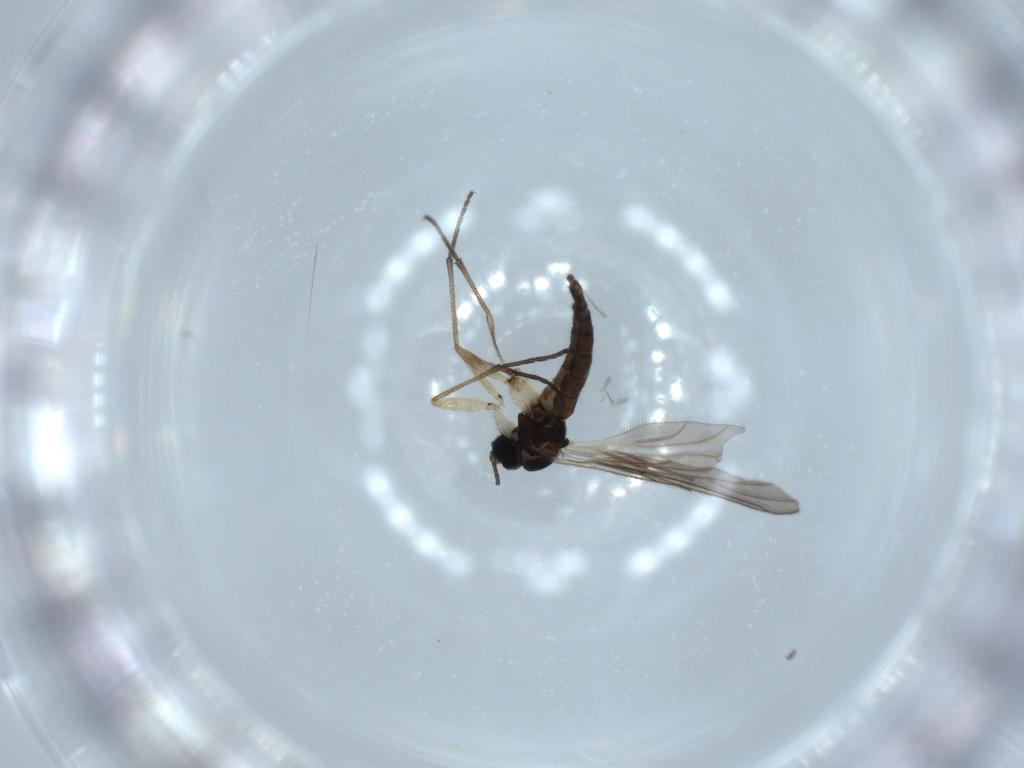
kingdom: Animalia
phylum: Arthropoda
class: Insecta
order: Diptera
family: Sciaridae
